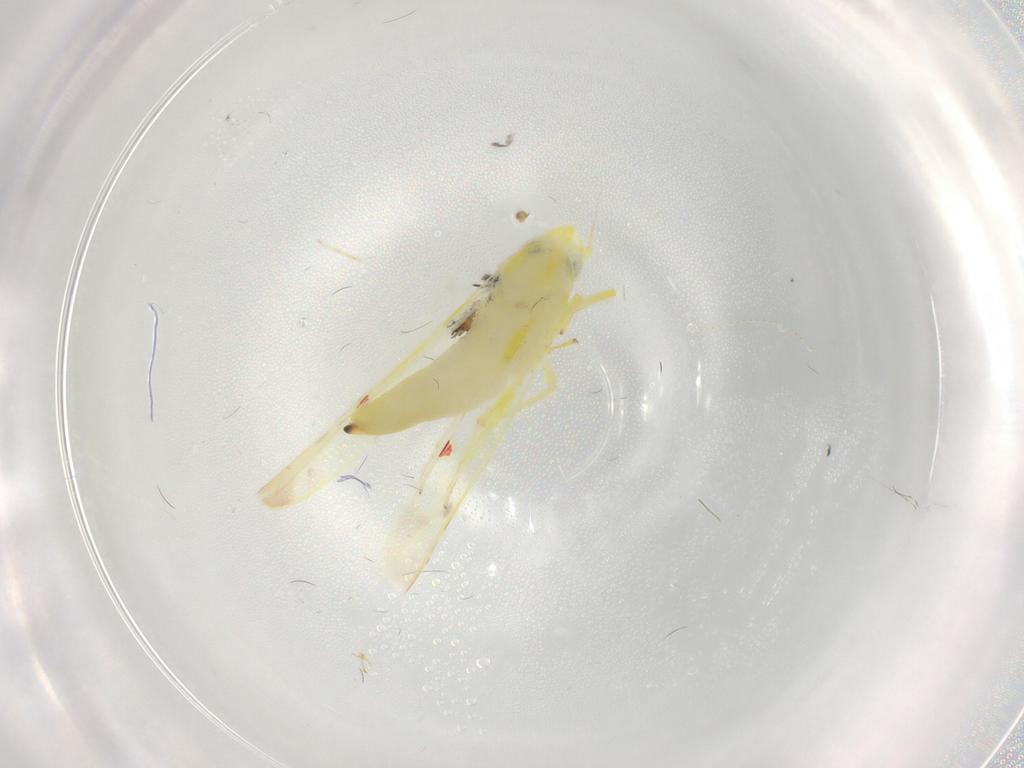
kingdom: Animalia
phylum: Arthropoda
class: Insecta
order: Hemiptera
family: Cicadellidae
